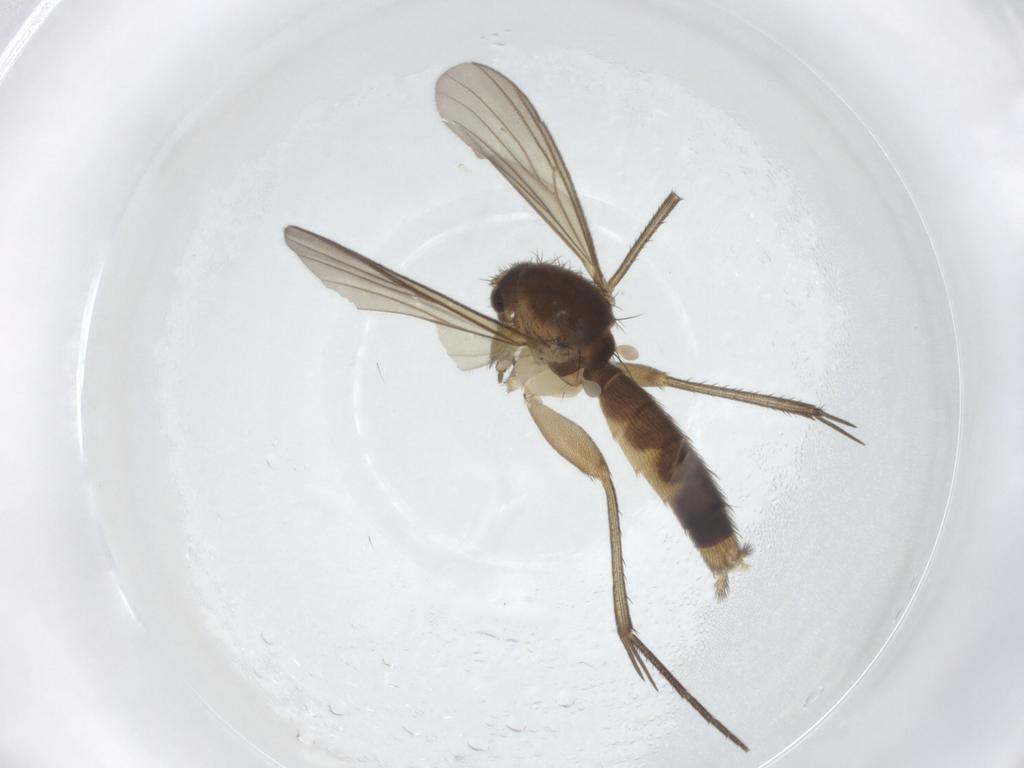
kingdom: Animalia
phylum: Arthropoda
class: Insecta
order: Diptera
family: Mycetophilidae
